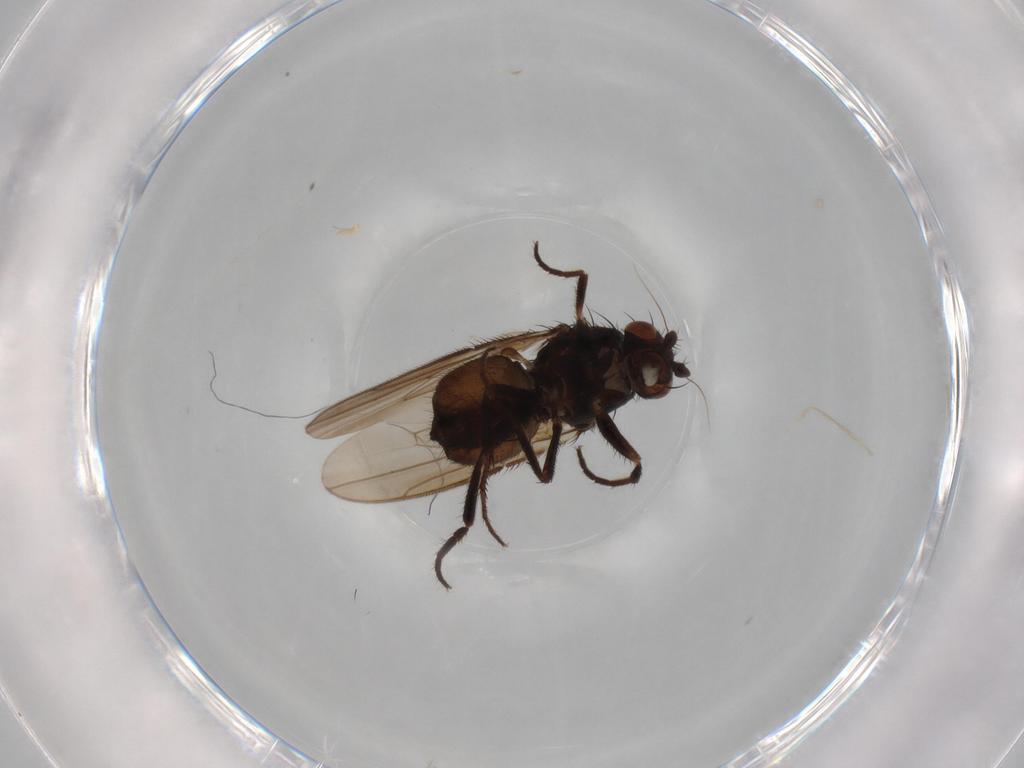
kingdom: Animalia
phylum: Arthropoda
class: Insecta
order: Diptera
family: Sphaeroceridae
